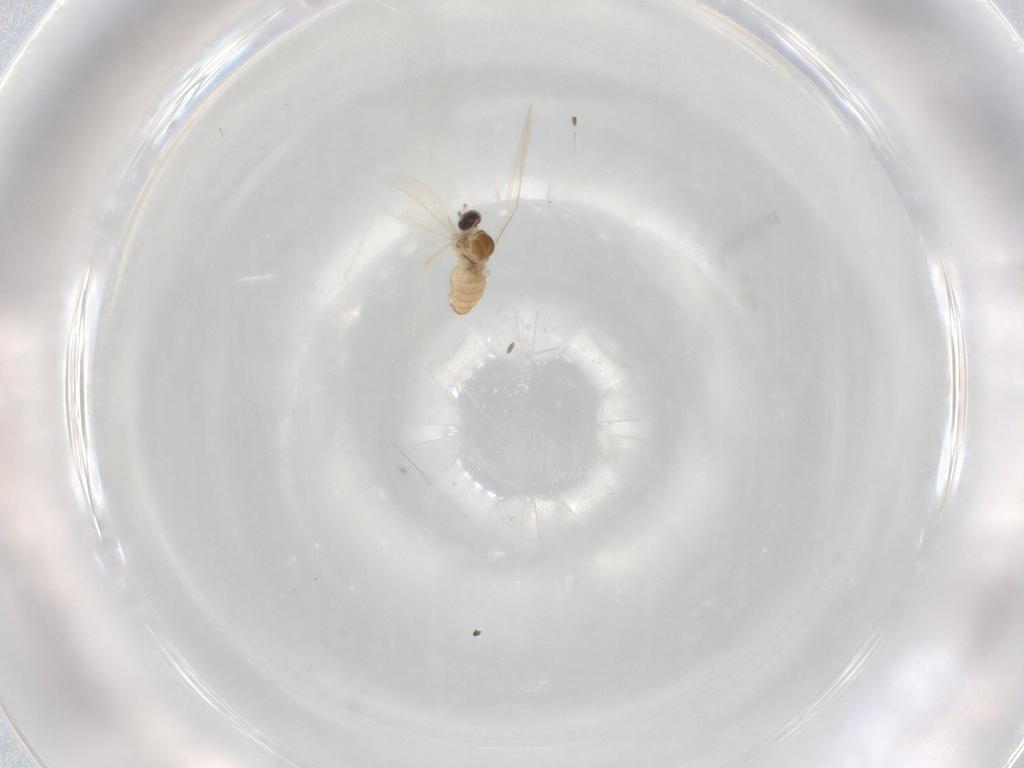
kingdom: Animalia
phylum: Arthropoda
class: Insecta
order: Diptera
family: Cecidomyiidae
